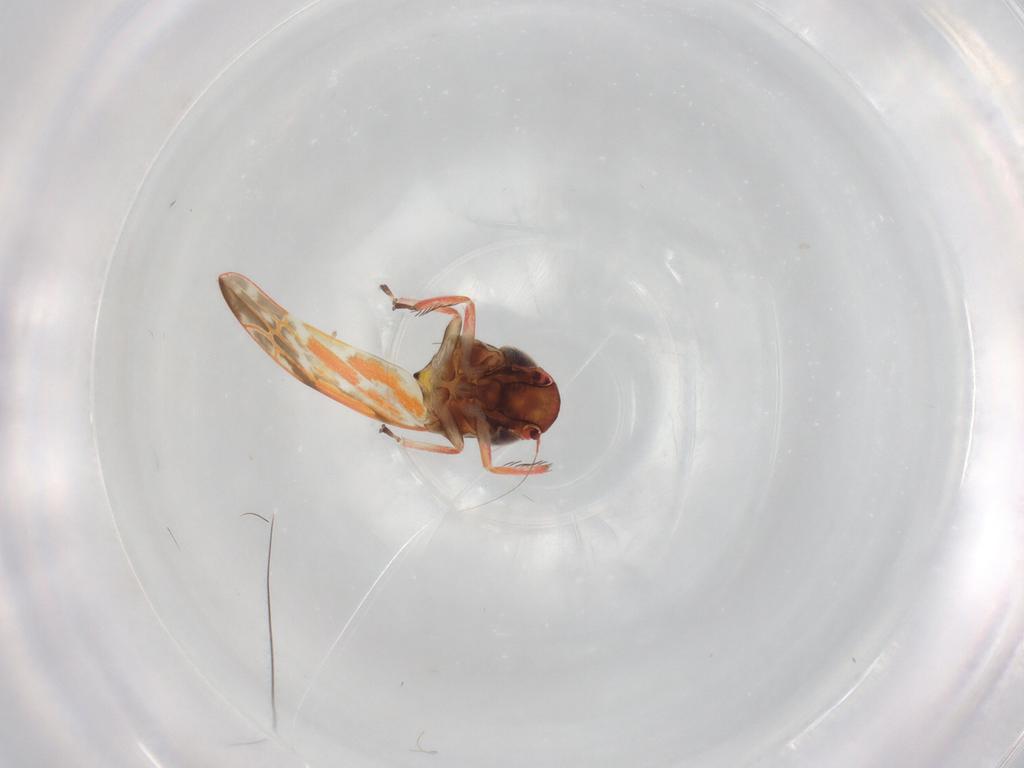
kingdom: Animalia
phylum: Arthropoda
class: Insecta
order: Hemiptera
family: Cicadellidae
